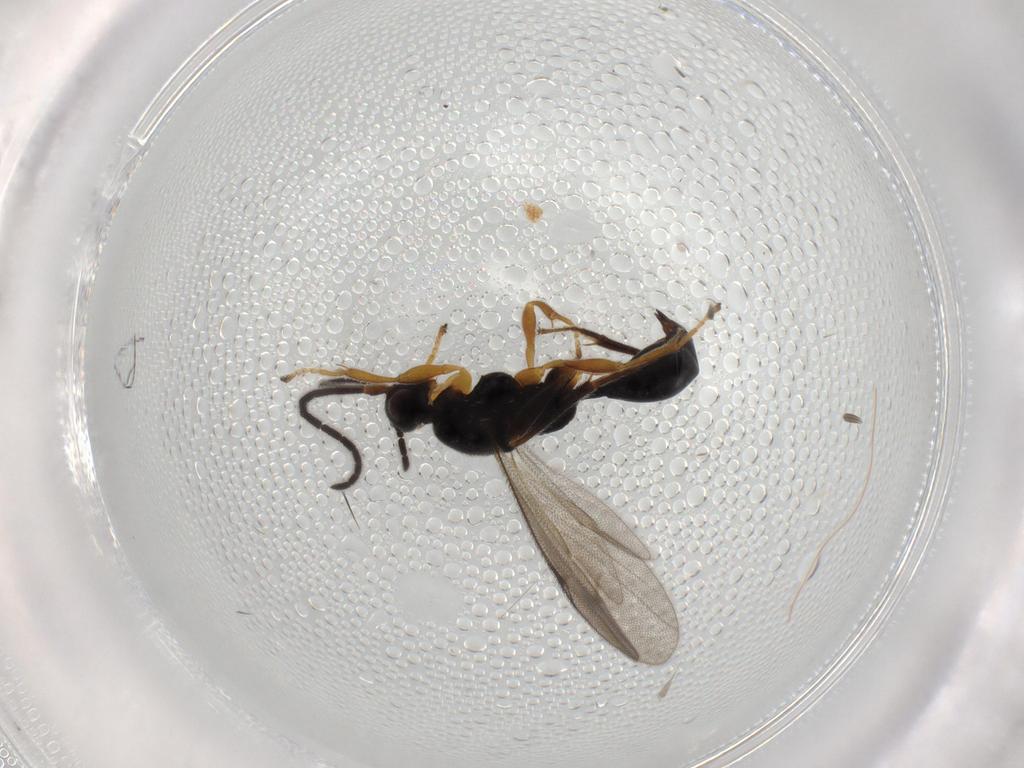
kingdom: Animalia
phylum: Arthropoda
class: Insecta
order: Hymenoptera
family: Proctotrupidae
